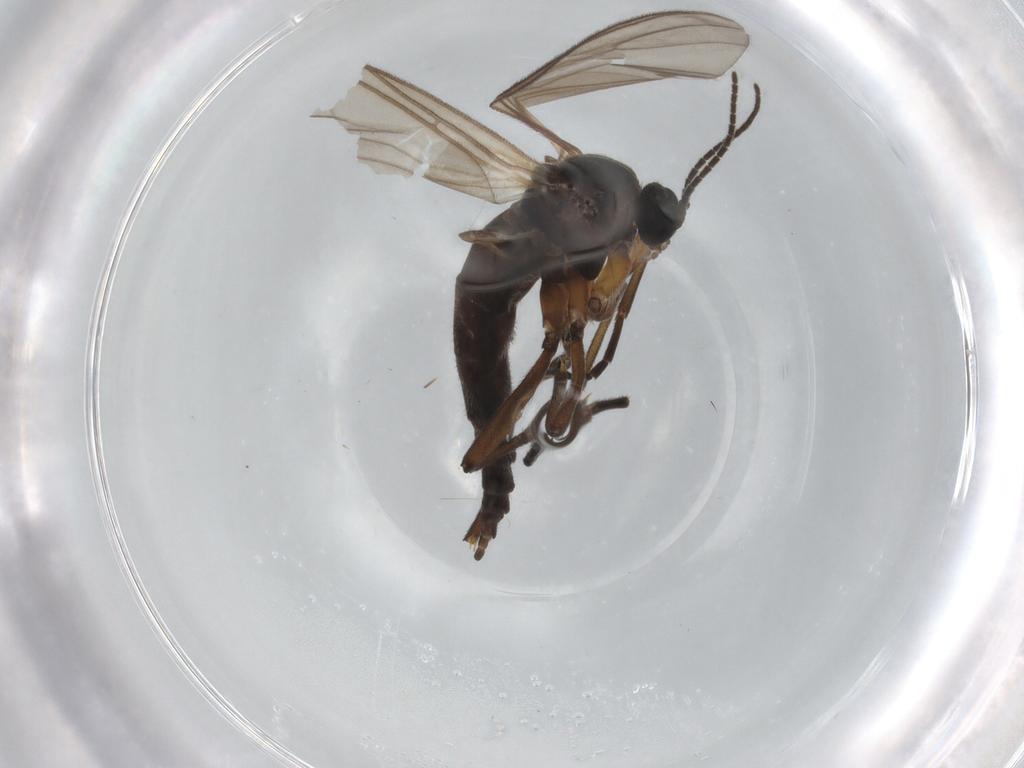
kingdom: Animalia
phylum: Arthropoda
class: Insecta
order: Diptera
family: Sciaridae
